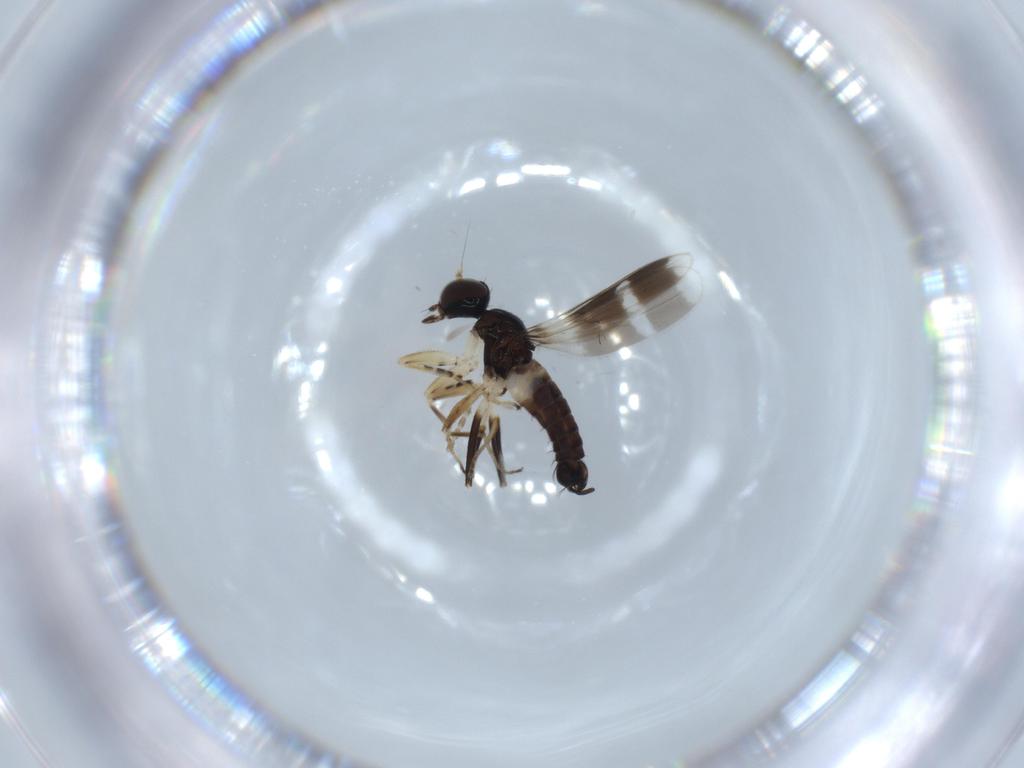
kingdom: Animalia
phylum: Arthropoda
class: Insecta
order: Diptera
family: Hybotidae
